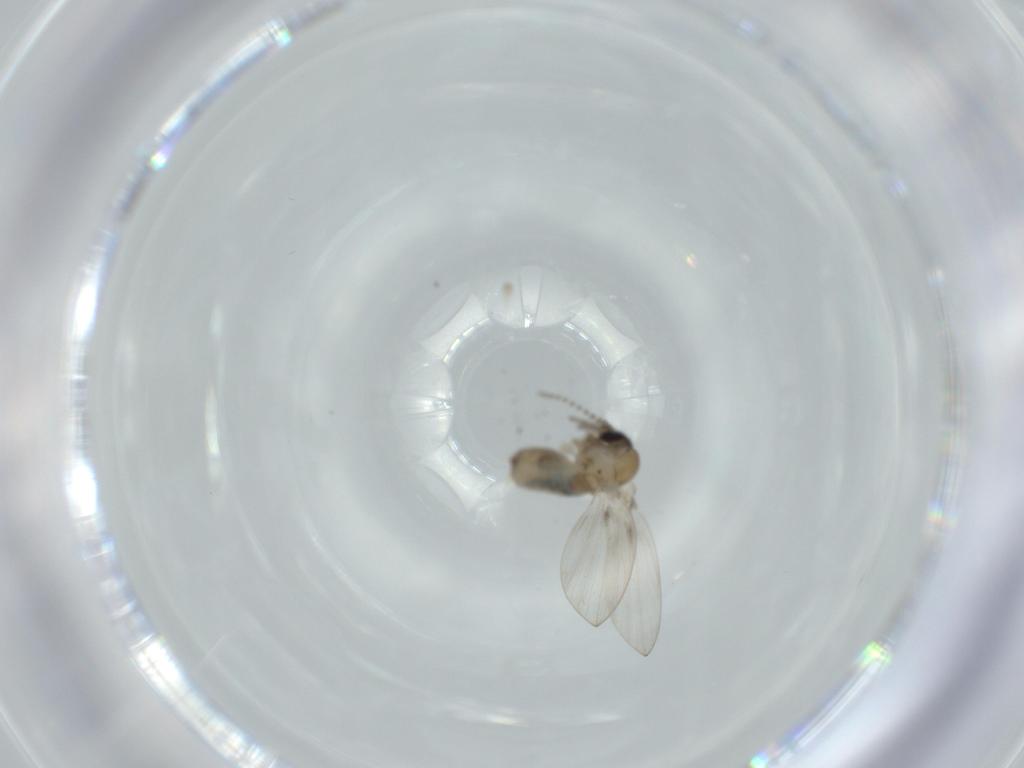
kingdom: Animalia
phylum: Arthropoda
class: Insecta
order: Diptera
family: Psychodidae
